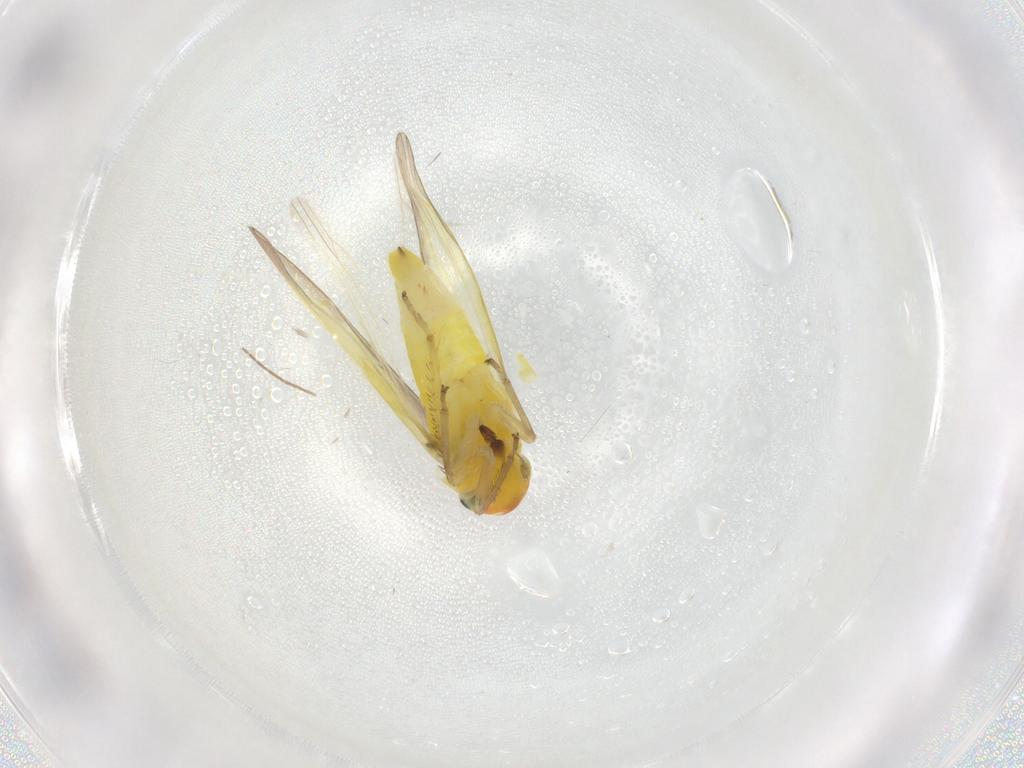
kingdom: Animalia
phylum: Arthropoda
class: Insecta
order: Hemiptera
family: Cicadellidae
